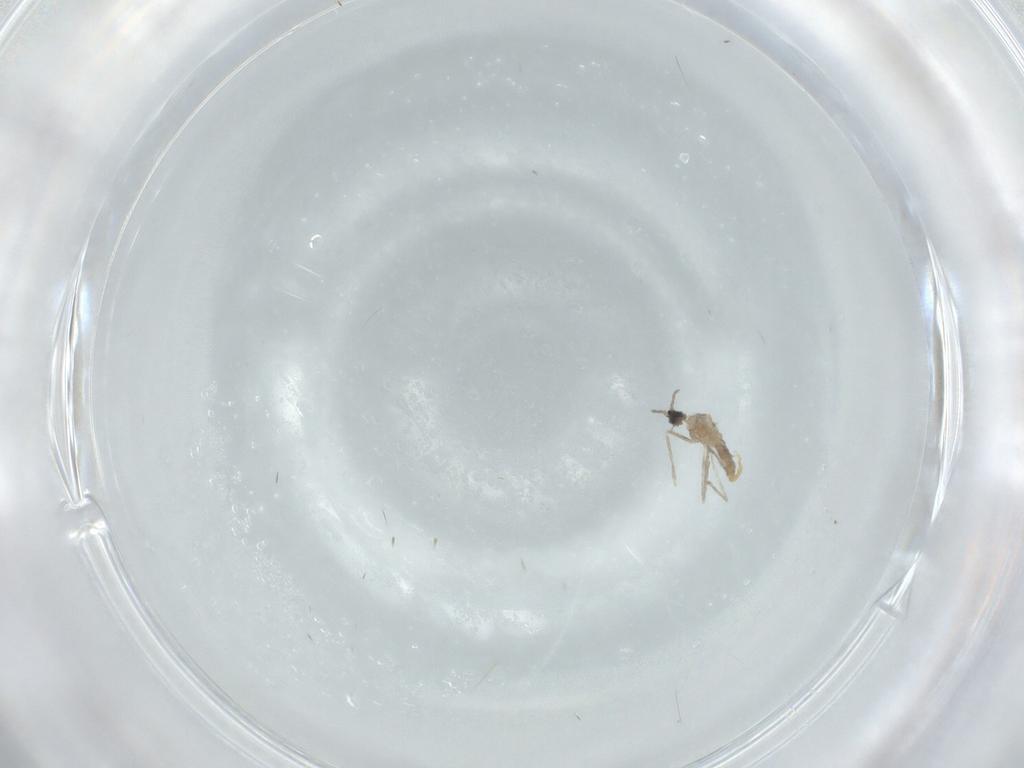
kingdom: Animalia
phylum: Arthropoda
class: Insecta
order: Diptera
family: Cecidomyiidae
